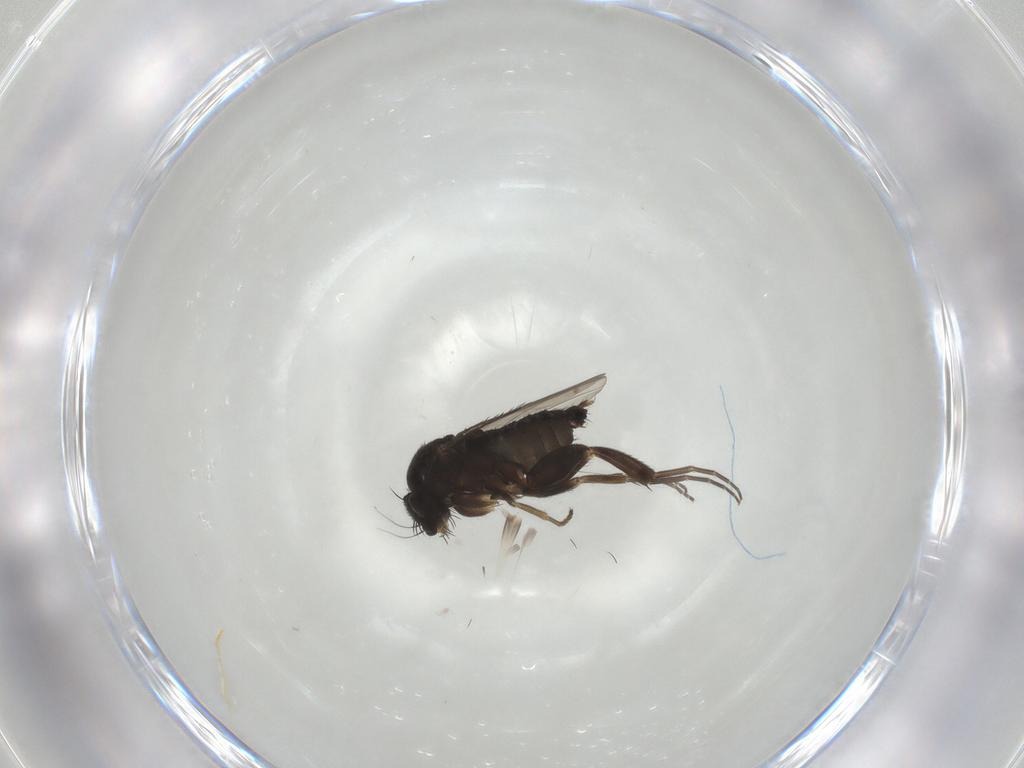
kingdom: Animalia
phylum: Arthropoda
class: Insecta
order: Diptera
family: Phoridae
